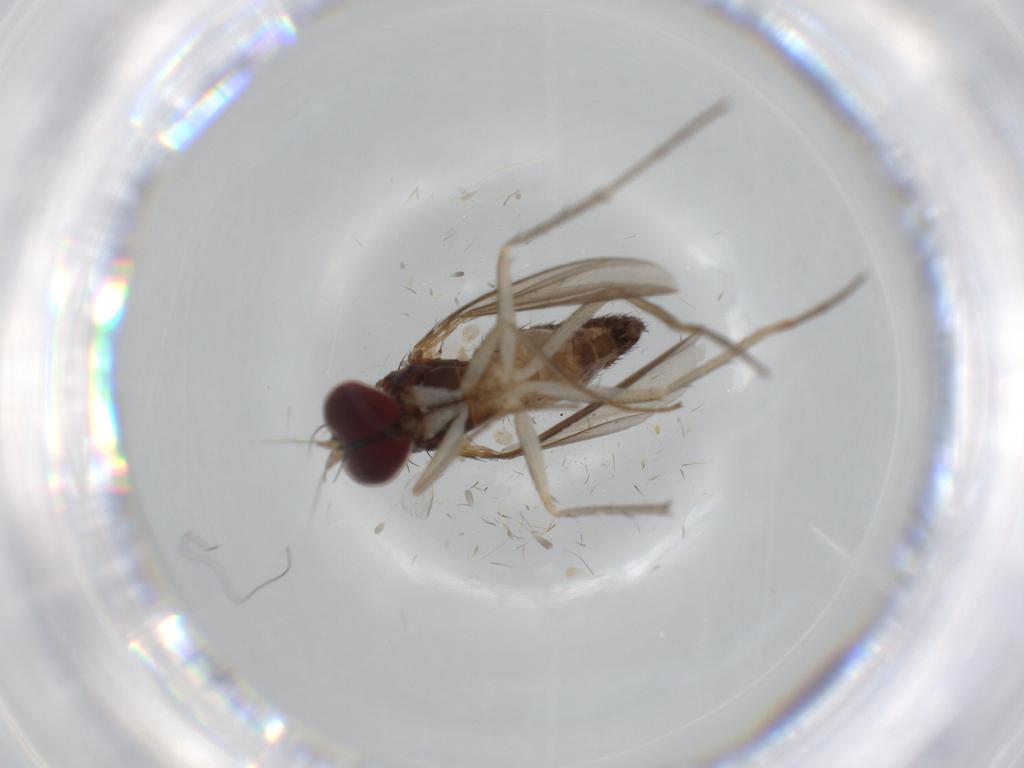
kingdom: Animalia
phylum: Arthropoda
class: Insecta
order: Diptera
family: Dolichopodidae
